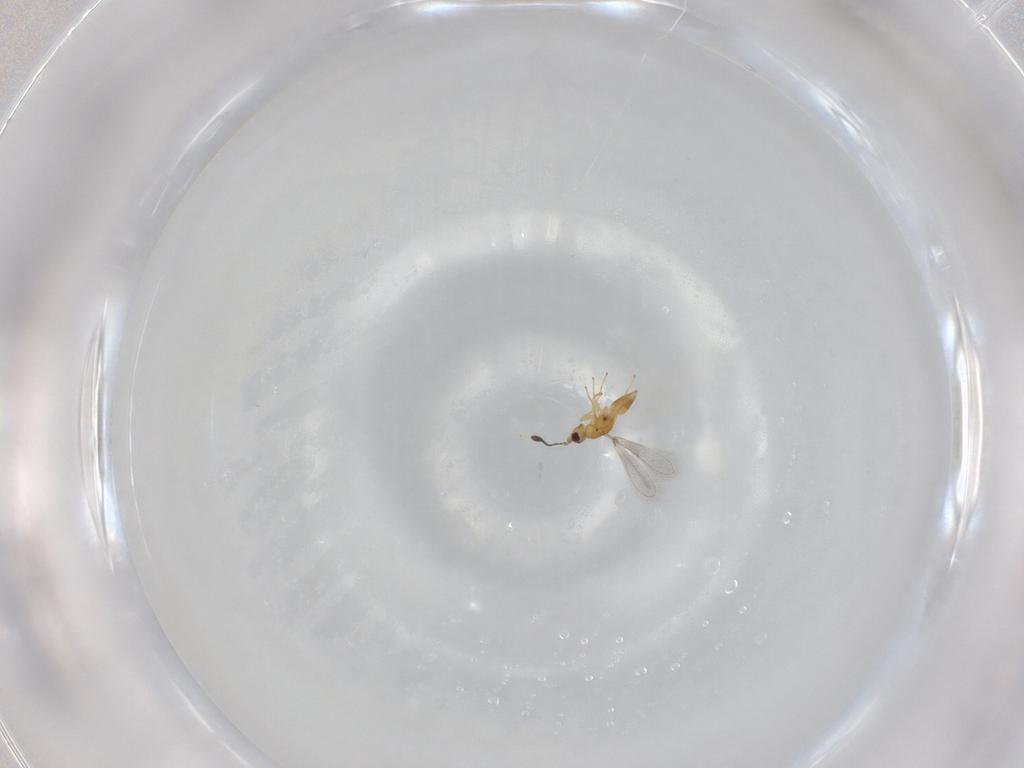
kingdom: Animalia
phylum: Arthropoda
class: Insecta
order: Hymenoptera
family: Mymaridae
